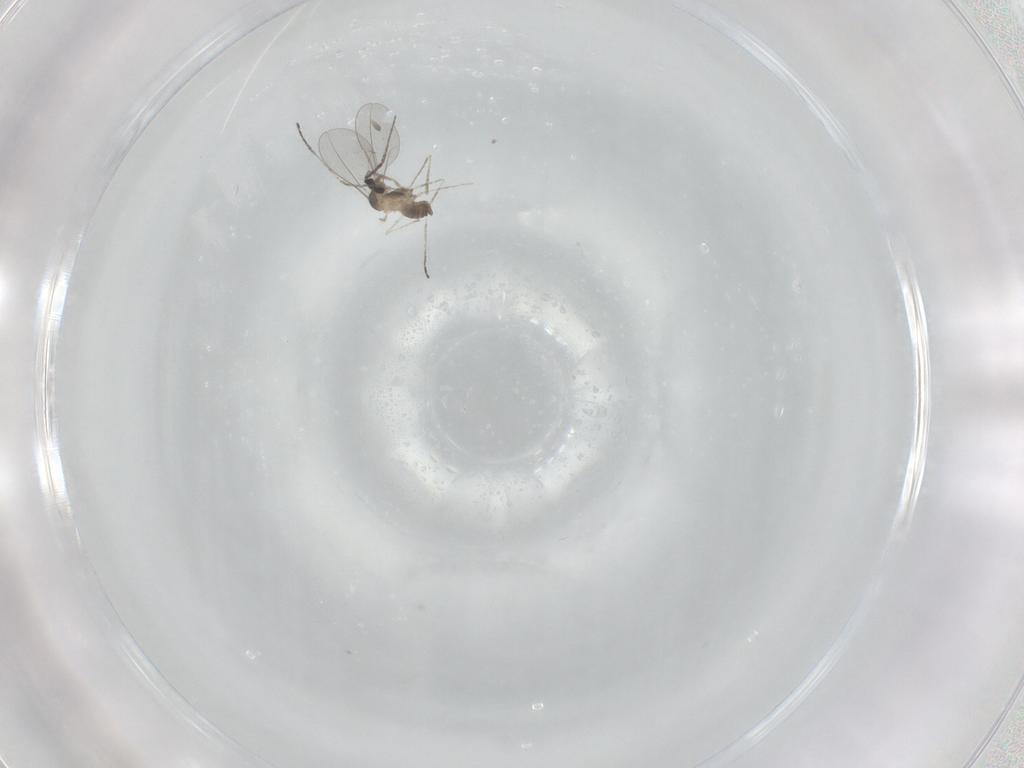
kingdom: Animalia
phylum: Arthropoda
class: Insecta
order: Diptera
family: Cecidomyiidae
